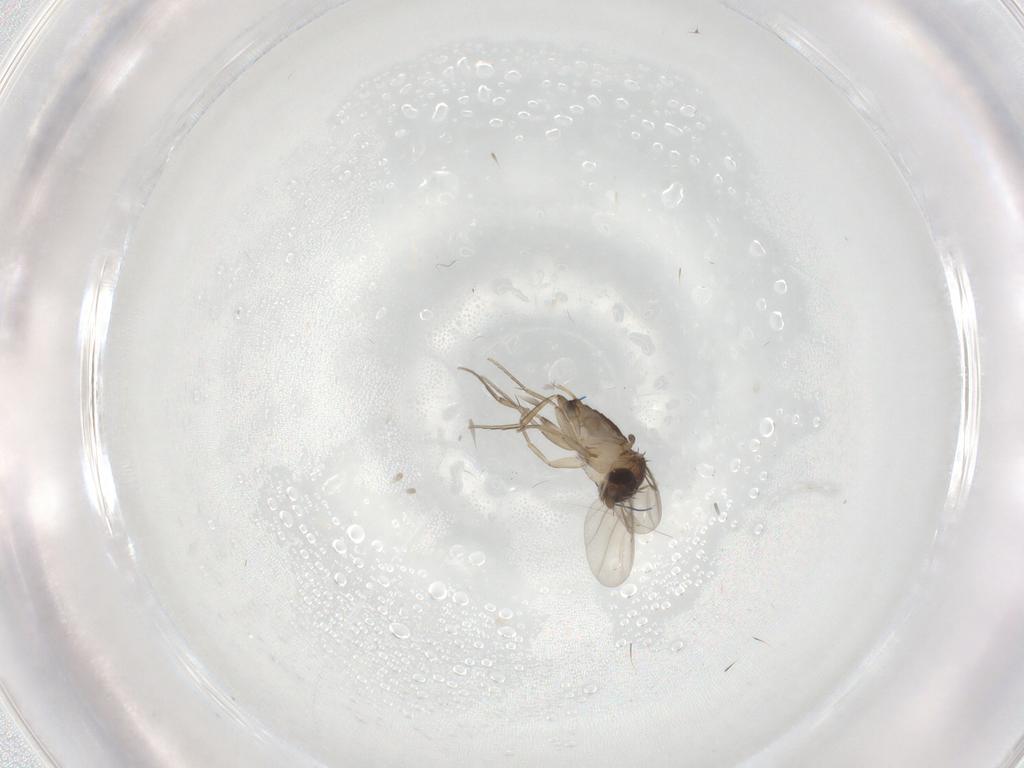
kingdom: Animalia
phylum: Arthropoda
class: Insecta
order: Diptera
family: Phoridae
